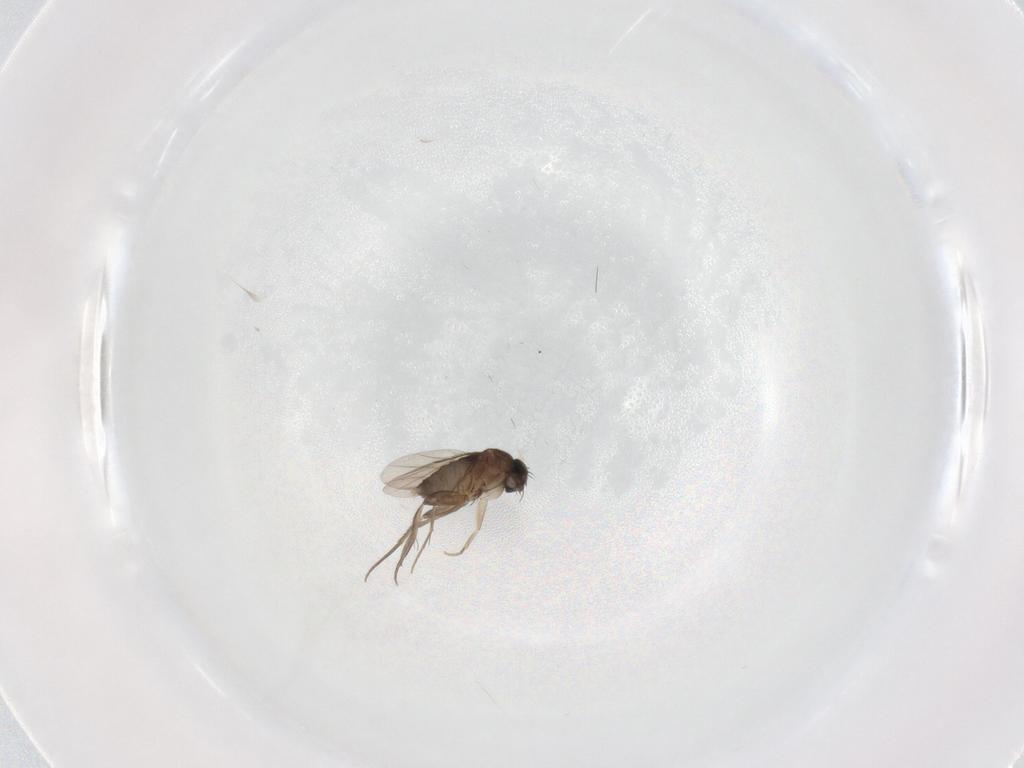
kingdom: Animalia
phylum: Arthropoda
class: Insecta
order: Diptera
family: Phoridae
